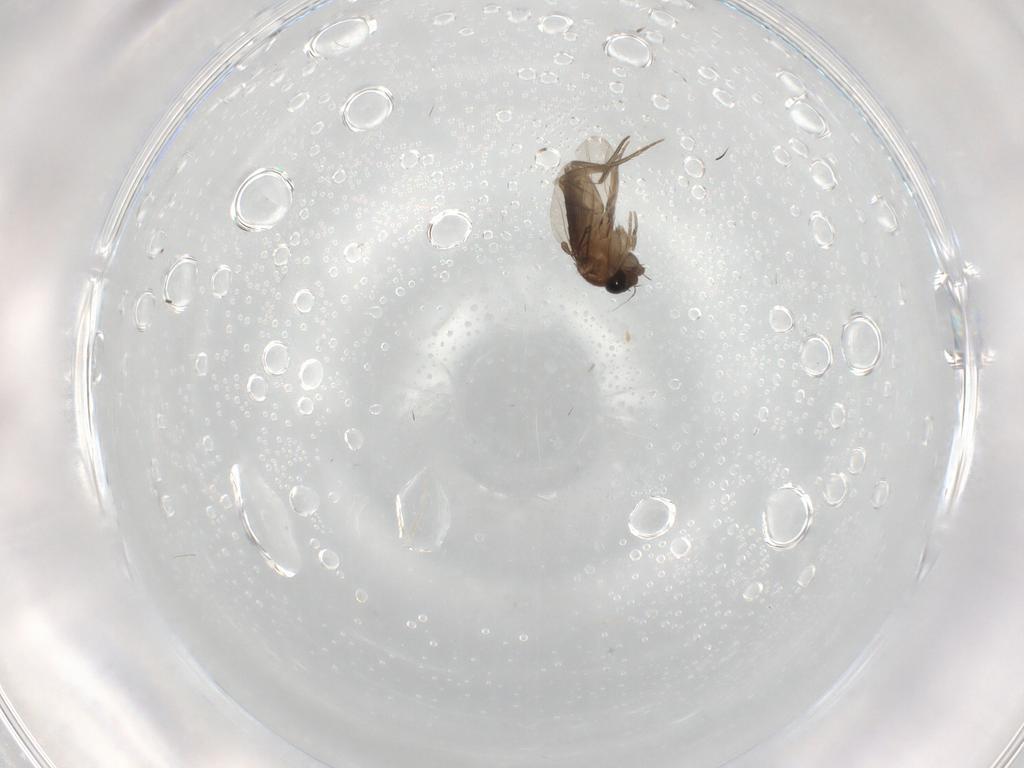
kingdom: Animalia
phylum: Arthropoda
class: Insecta
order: Diptera
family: Phoridae
